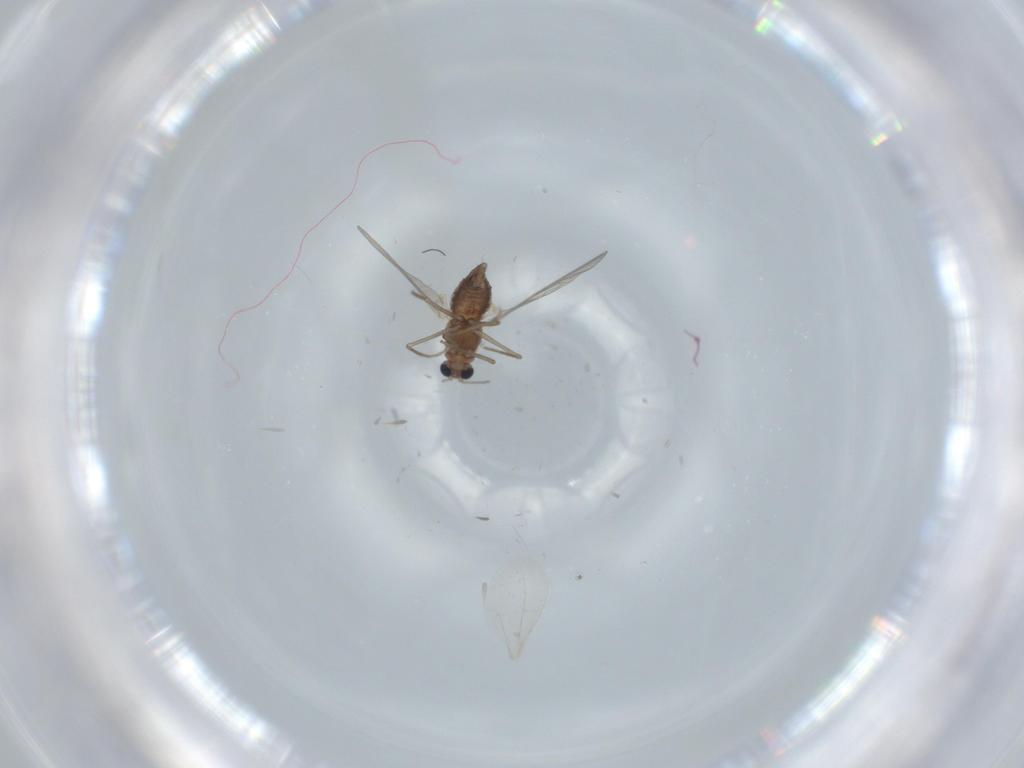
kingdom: Animalia
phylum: Arthropoda
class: Insecta
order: Diptera
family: Chironomidae
